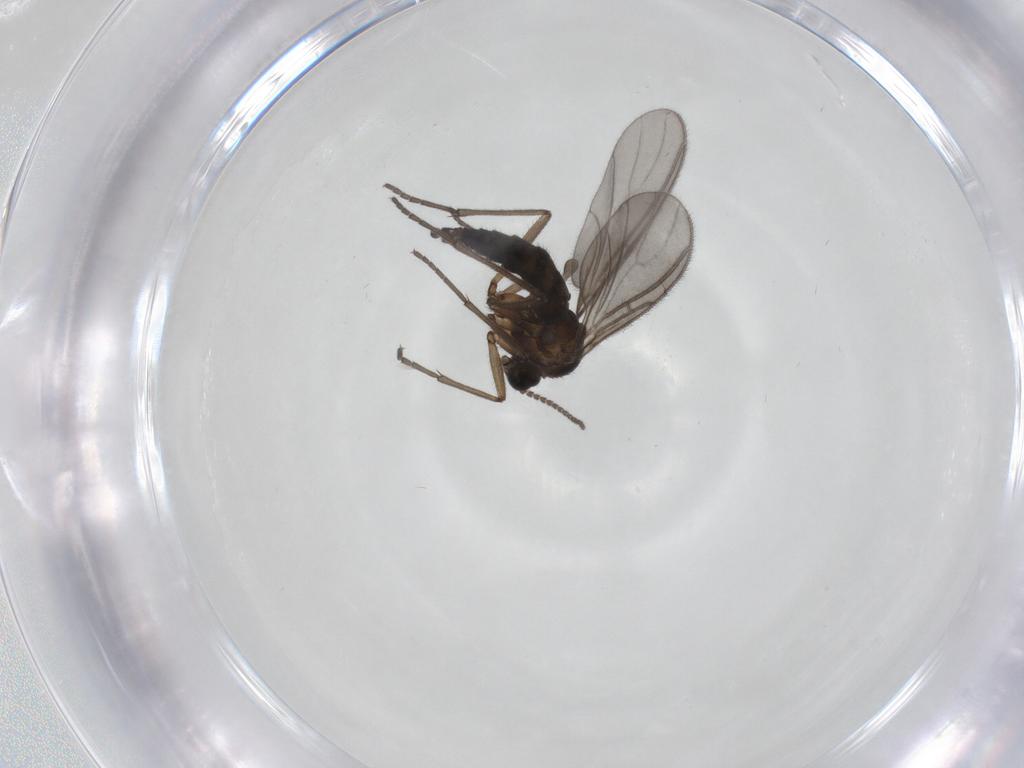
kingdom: Animalia
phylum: Arthropoda
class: Insecta
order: Diptera
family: Sciaridae
